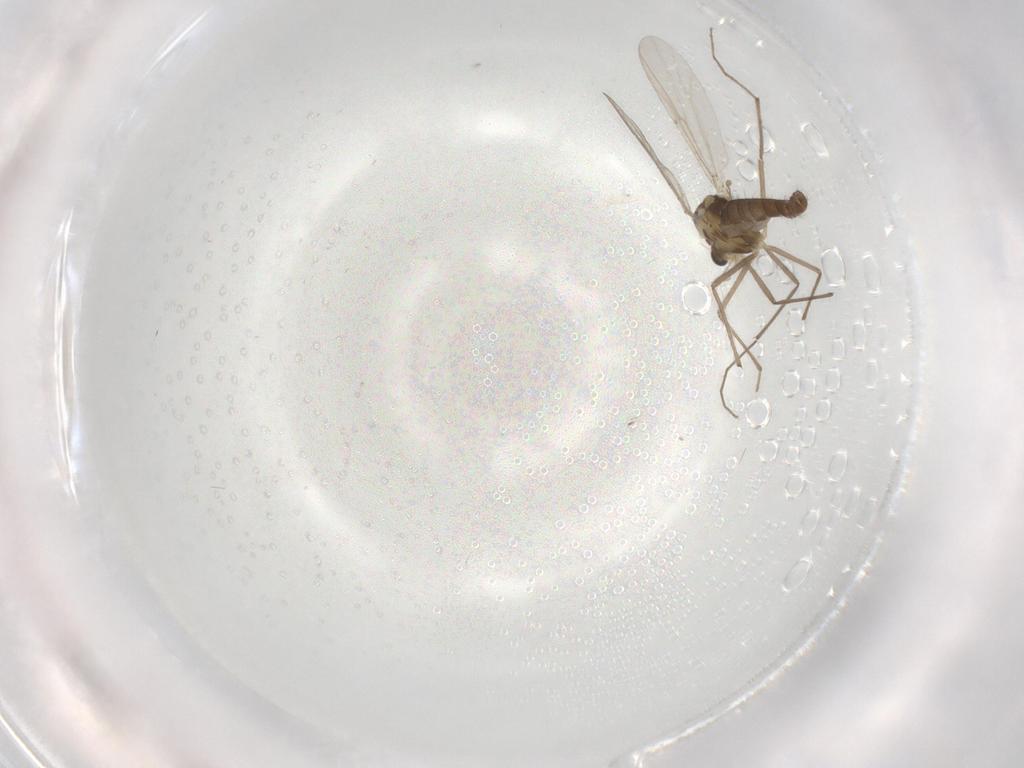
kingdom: Animalia
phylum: Arthropoda
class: Insecta
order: Diptera
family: Chironomidae
